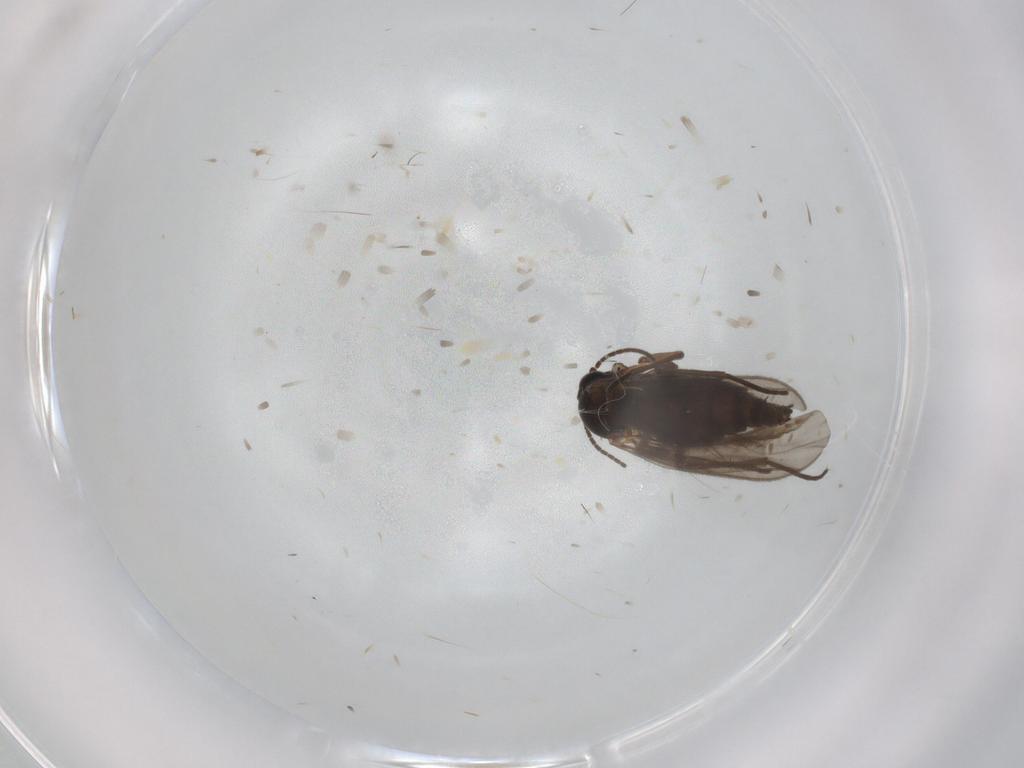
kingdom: Animalia
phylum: Arthropoda
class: Insecta
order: Diptera
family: Sciaridae
